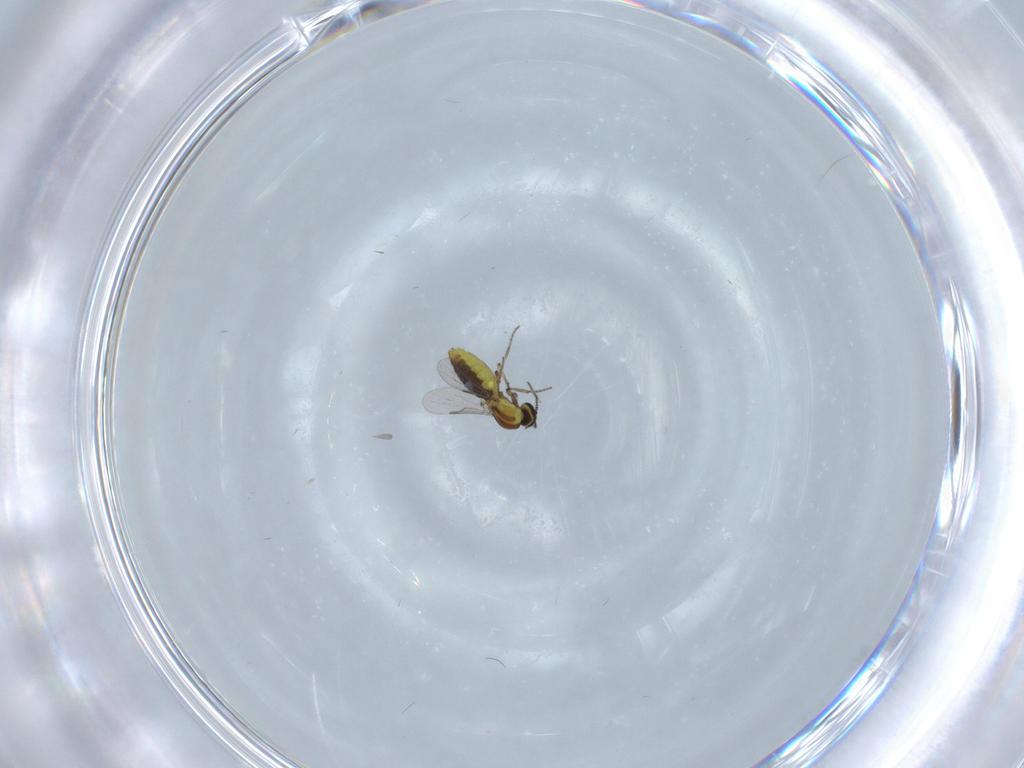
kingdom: Animalia
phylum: Arthropoda
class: Insecta
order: Diptera
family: Ceratopogonidae
